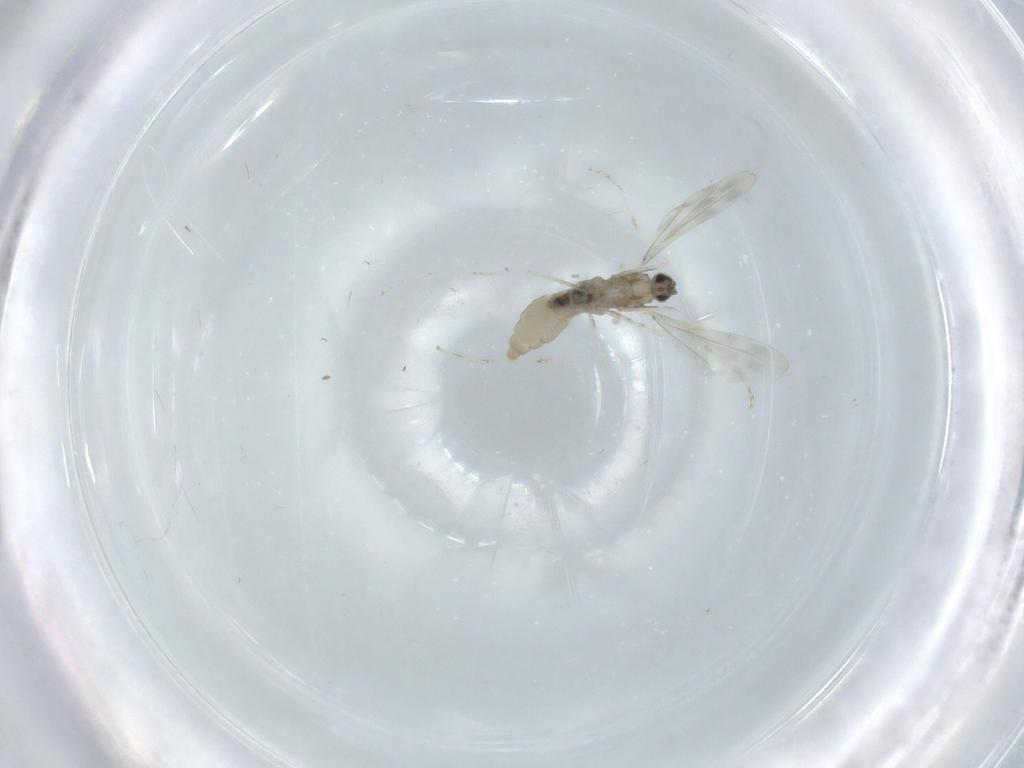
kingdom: Animalia
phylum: Arthropoda
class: Insecta
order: Diptera
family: Cecidomyiidae
